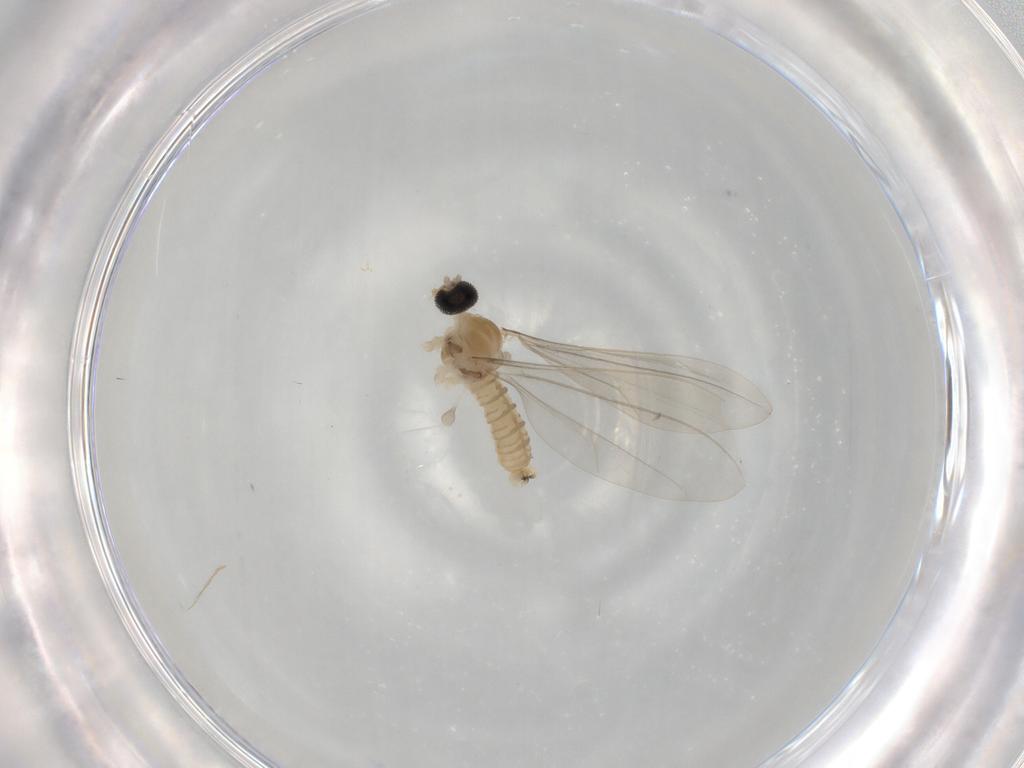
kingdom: Animalia
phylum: Arthropoda
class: Insecta
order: Diptera
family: Cecidomyiidae
